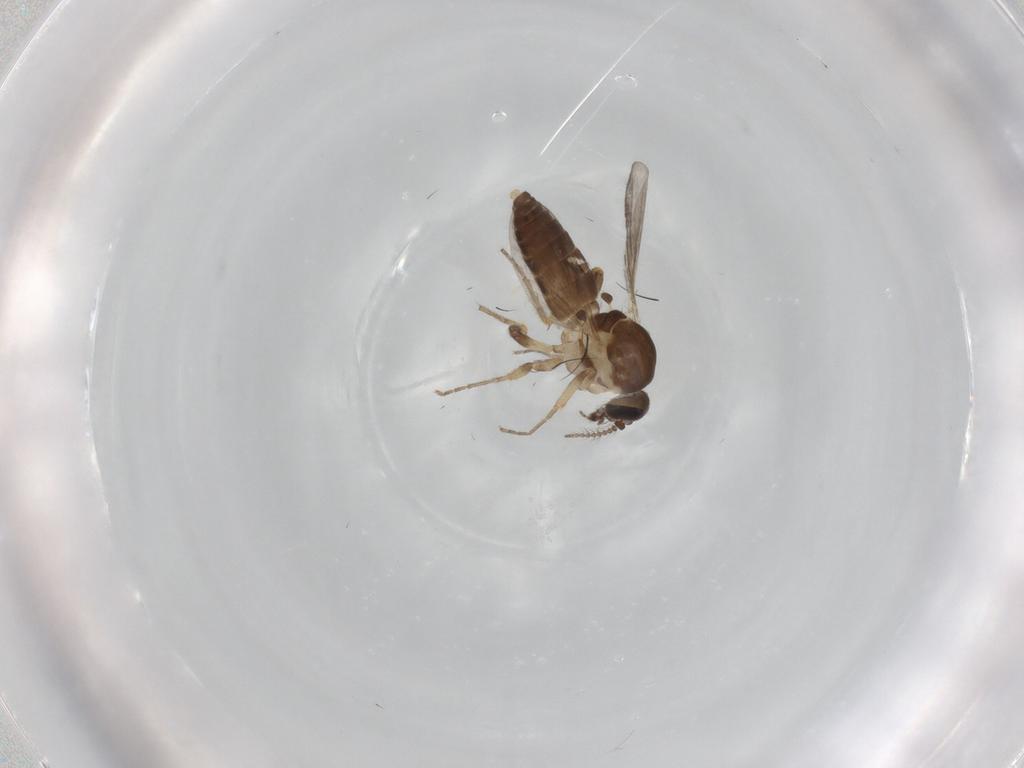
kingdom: Animalia
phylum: Arthropoda
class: Insecta
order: Diptera
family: Ceratopogonidae
